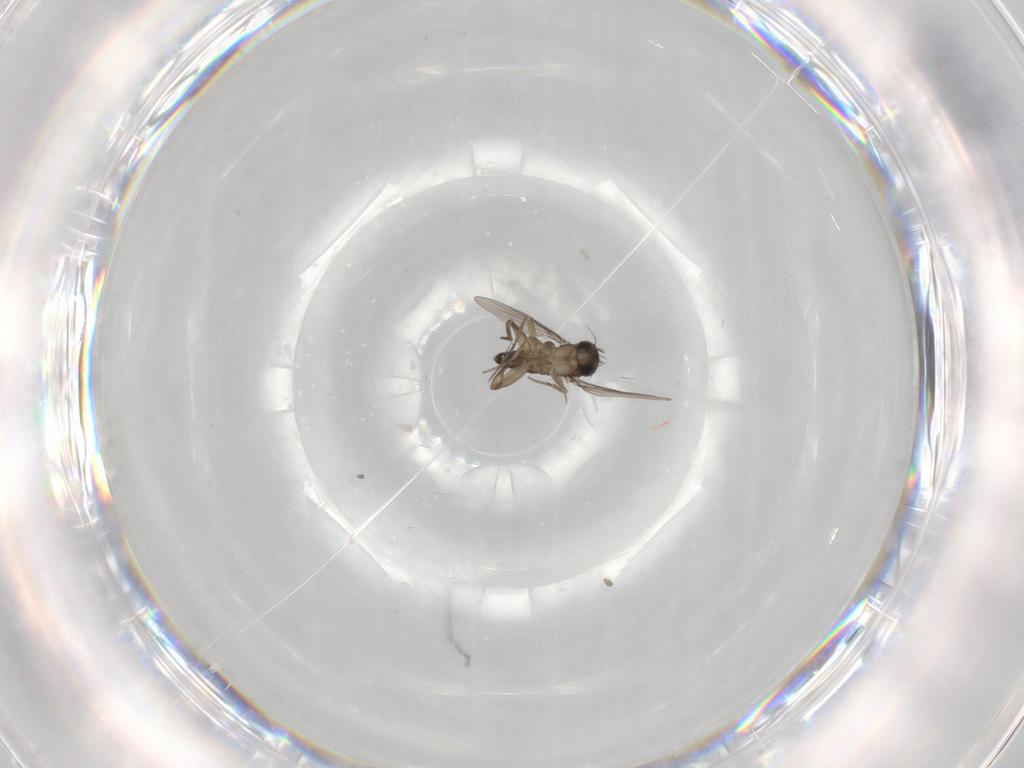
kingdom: Animalia
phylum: Arthropoda
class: Insecta
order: Diptera
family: Phoridae
